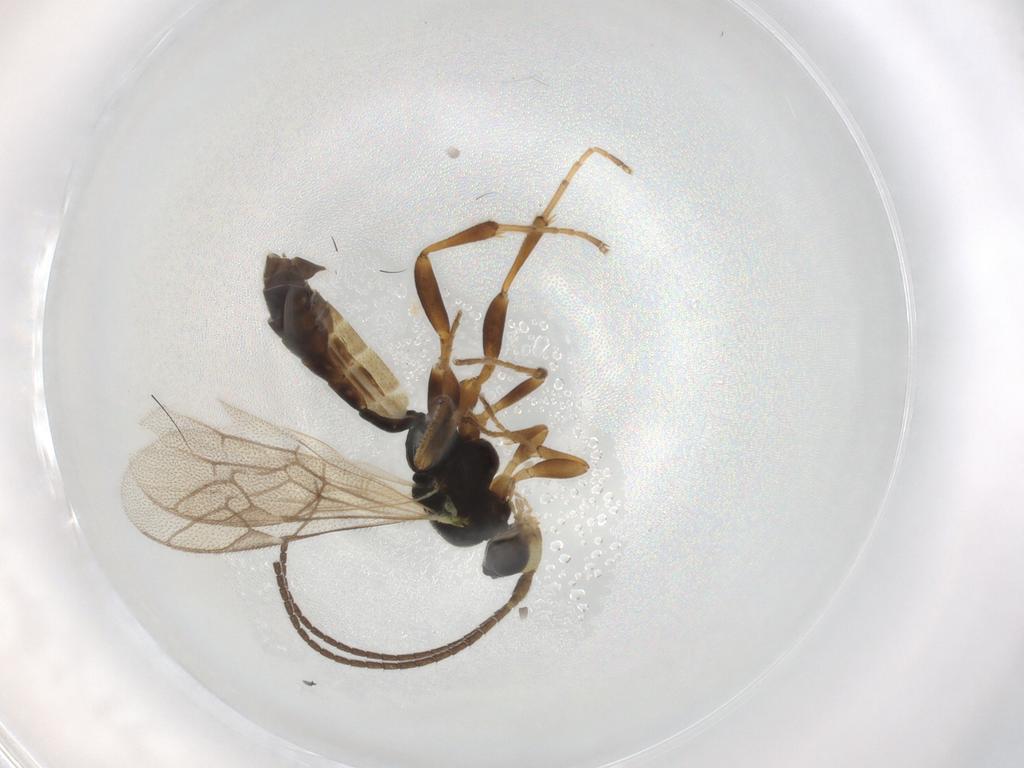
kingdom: Animalia
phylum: Arthropoda
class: Insecta
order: Hymenoptera
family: Ichneumonidae
